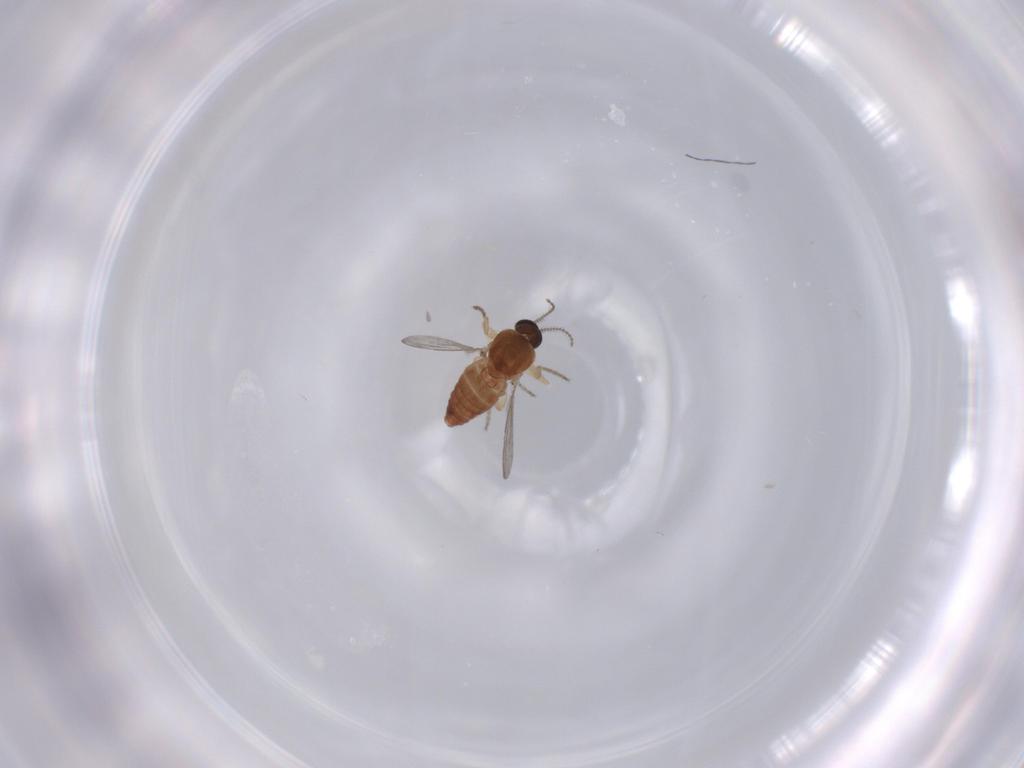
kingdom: Animalia
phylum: Arthropoda
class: Insecta
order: Diptera
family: Ceratopogonidae
